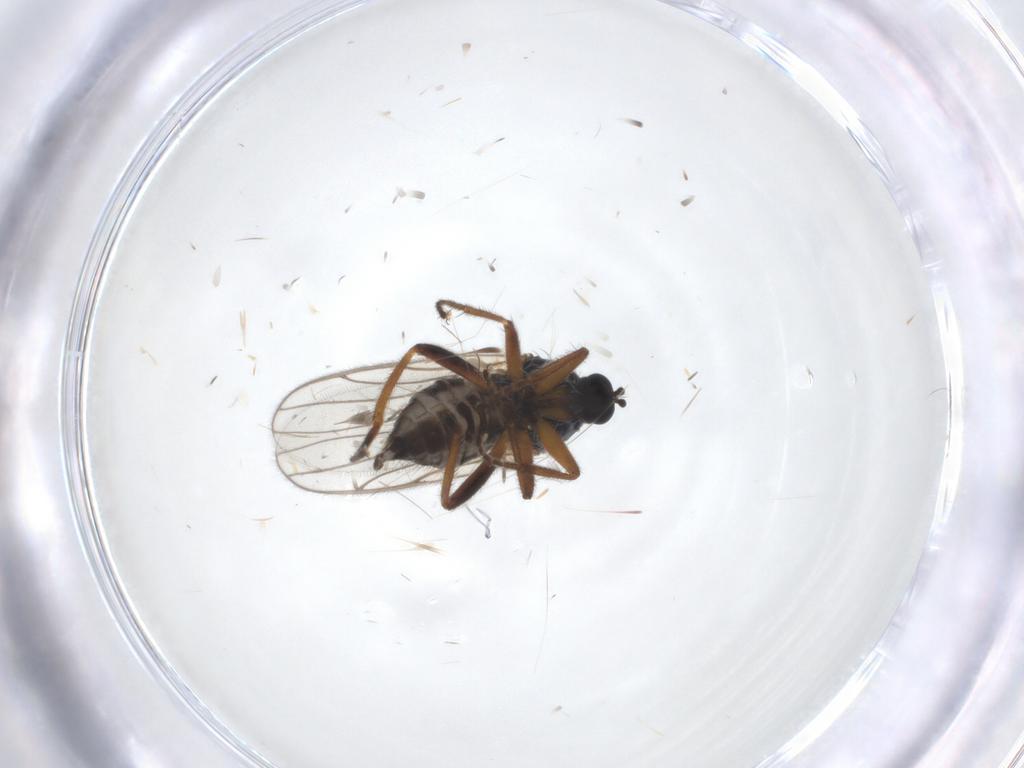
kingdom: Animalia
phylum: Arthropoda
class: Insecta
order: Diptera
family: Hybotidae
